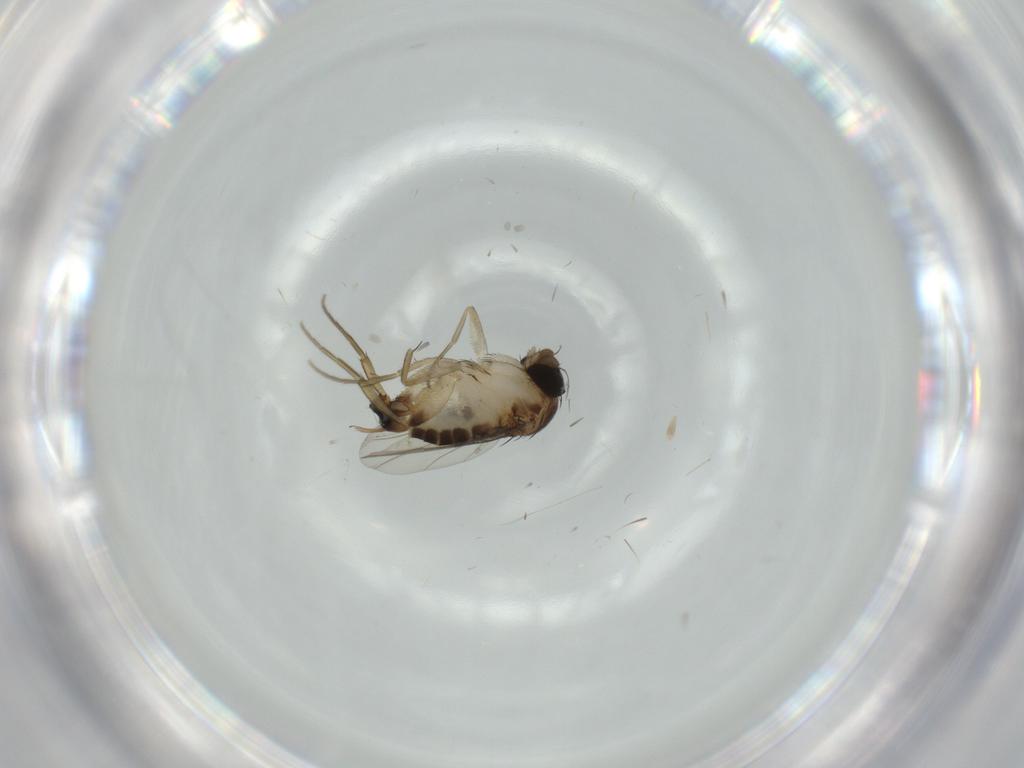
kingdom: Animalia
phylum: Arthropoda
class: Insecta
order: Diptera
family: Phoridae
